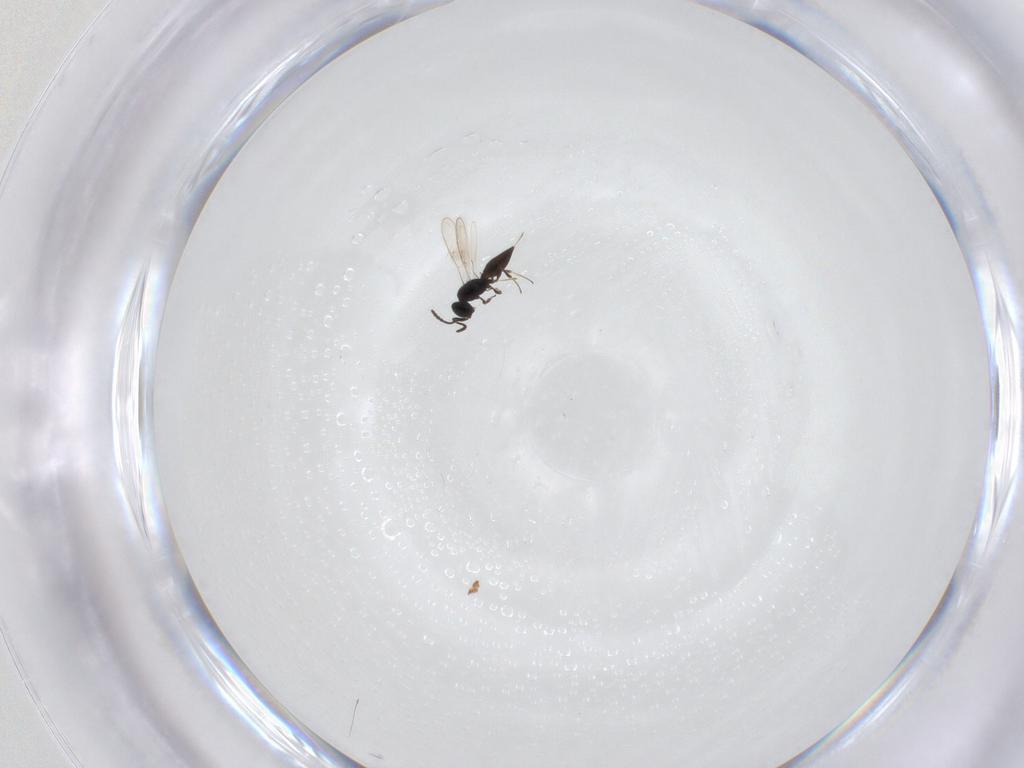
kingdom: Animalia
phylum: Arthropoda
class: Insecta
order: Hymenoptera
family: Scelionidae
